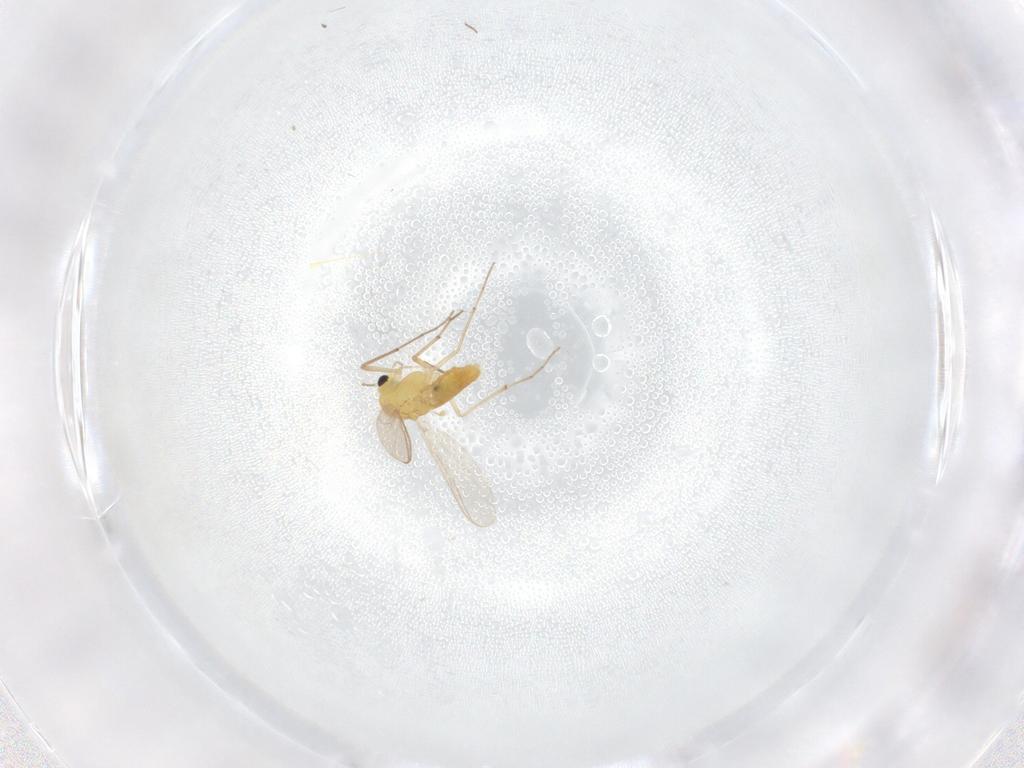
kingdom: Animalia
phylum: Arthropoda
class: Insecta
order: Diptera
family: Chironomidae
